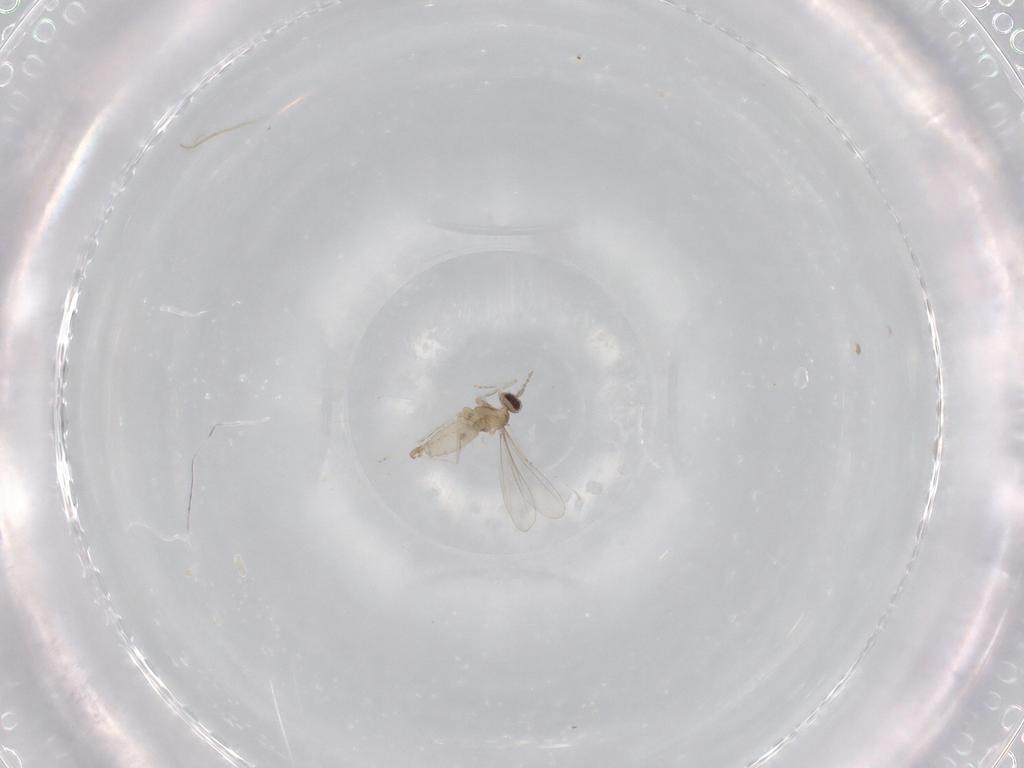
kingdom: Animalia
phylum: Arthropoda
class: Insecta
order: Diptera
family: Cecidomyiidae
